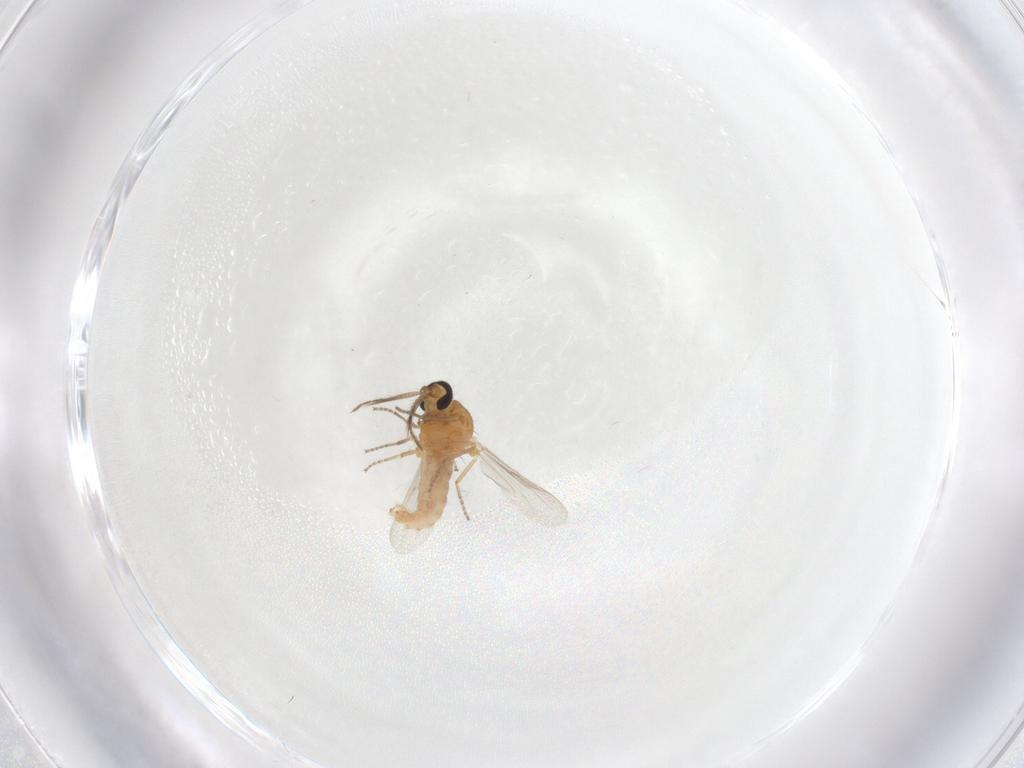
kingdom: Animalia
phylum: Arthropoda
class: Insecta
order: Diptera
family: Ceratopogonidae
